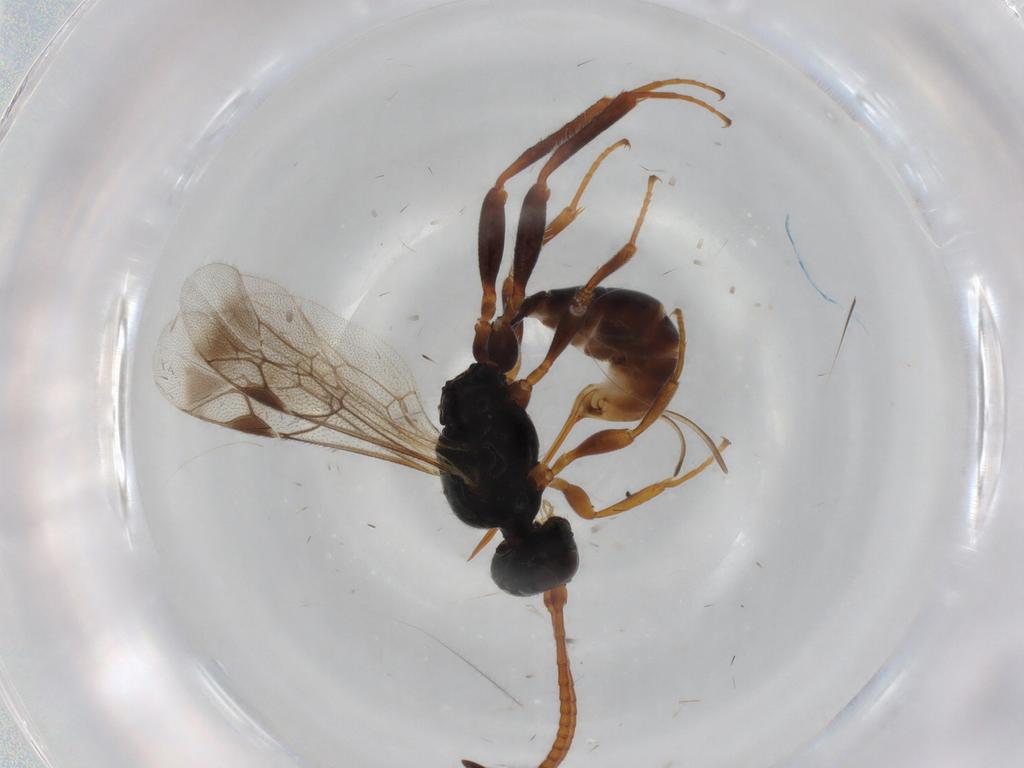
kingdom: Animalia
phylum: Arthropoda
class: Insecta
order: Hymenoptera
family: Ichneumonidae
